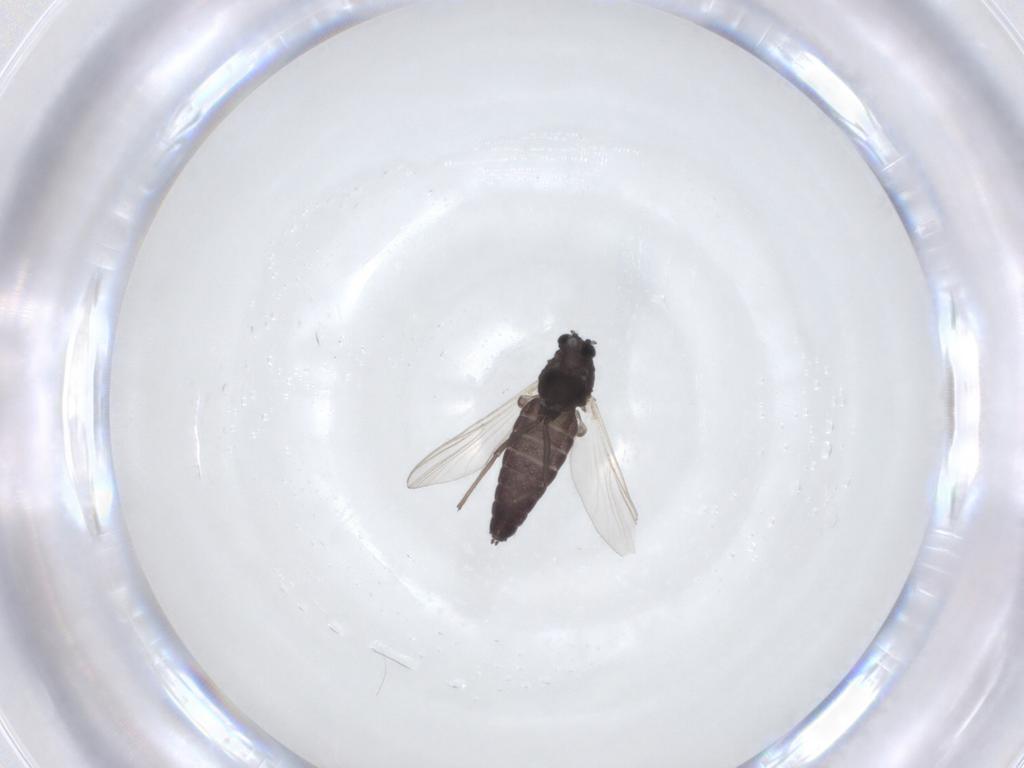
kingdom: Animalia
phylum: Arthropoda
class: Insecta
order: Diptera
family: Chironomidae
